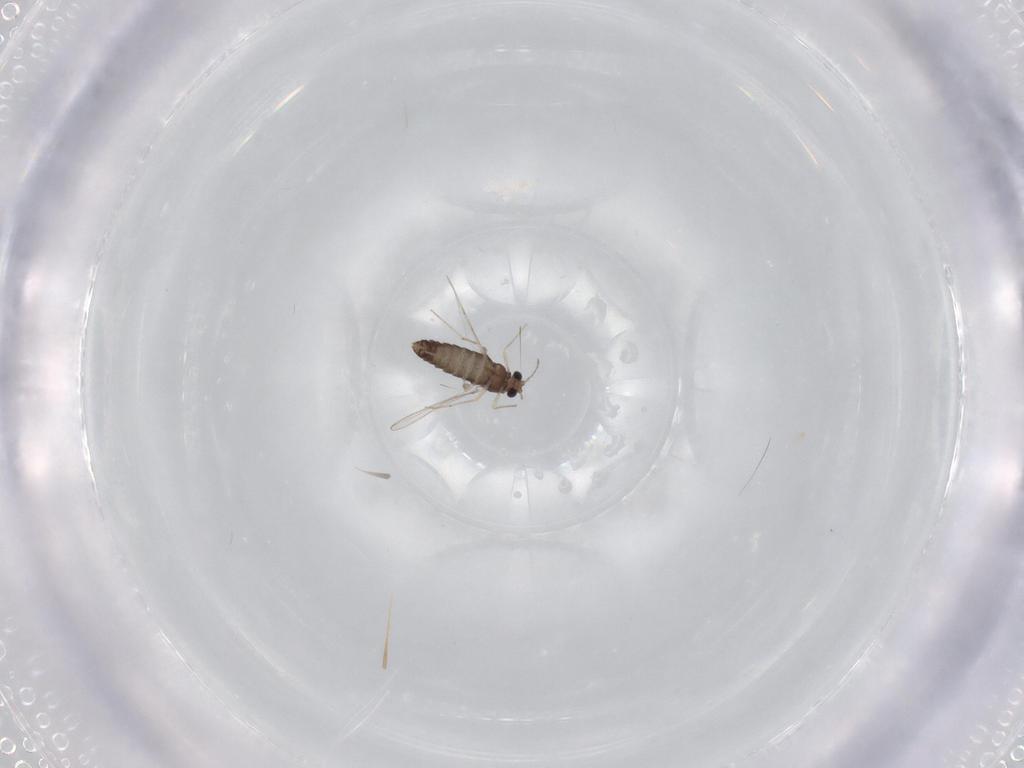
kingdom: Animalia
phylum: Arthropoda
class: Insecta
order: Diptera
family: Chironomidae
